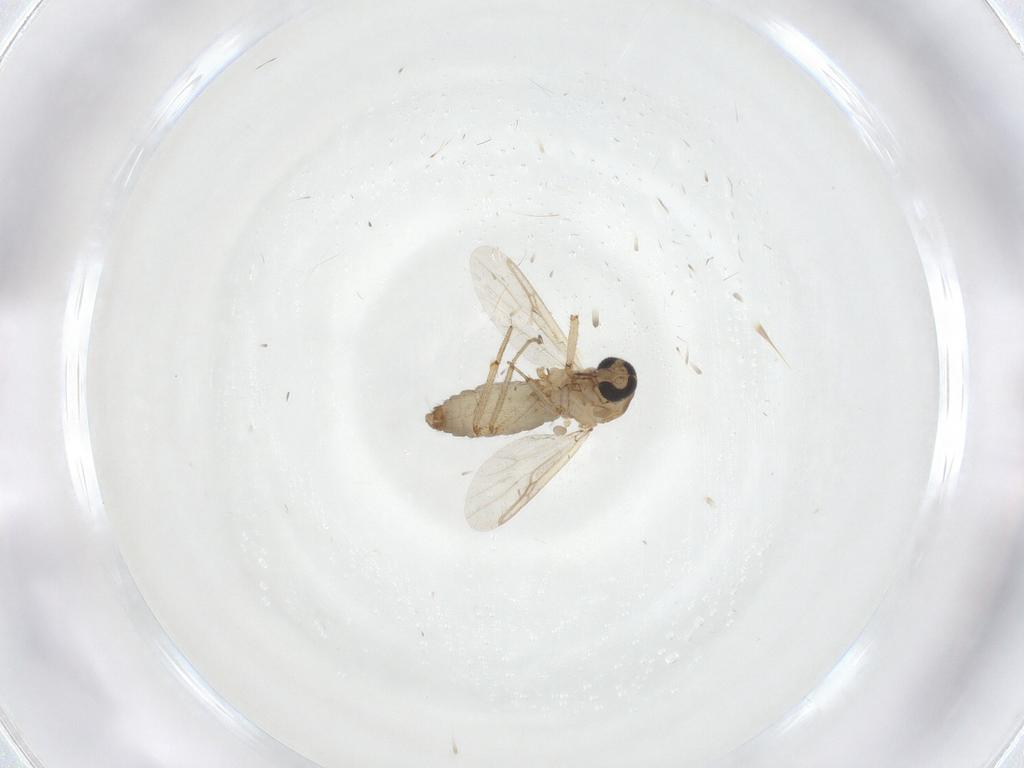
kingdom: Animalia
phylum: Arthropoda
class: Insecta
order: Diptera
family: Ceratopogonidae
